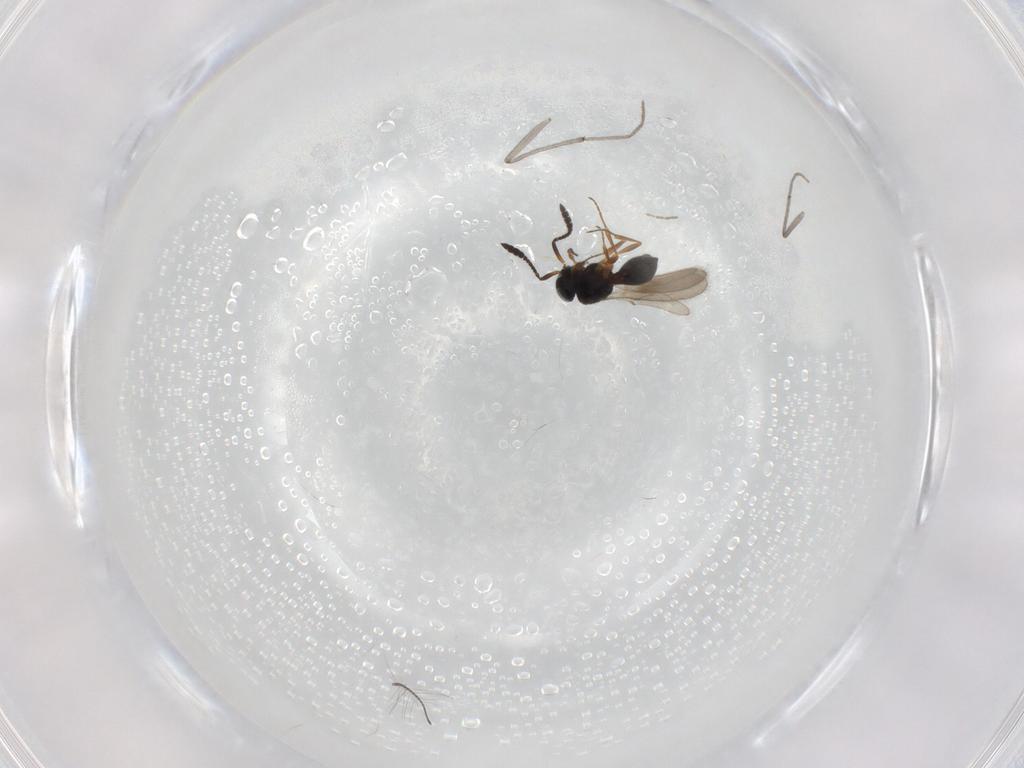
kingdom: Animalia
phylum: Arthropoda
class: Insecta
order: Hymenoptera
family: Scelionidae
